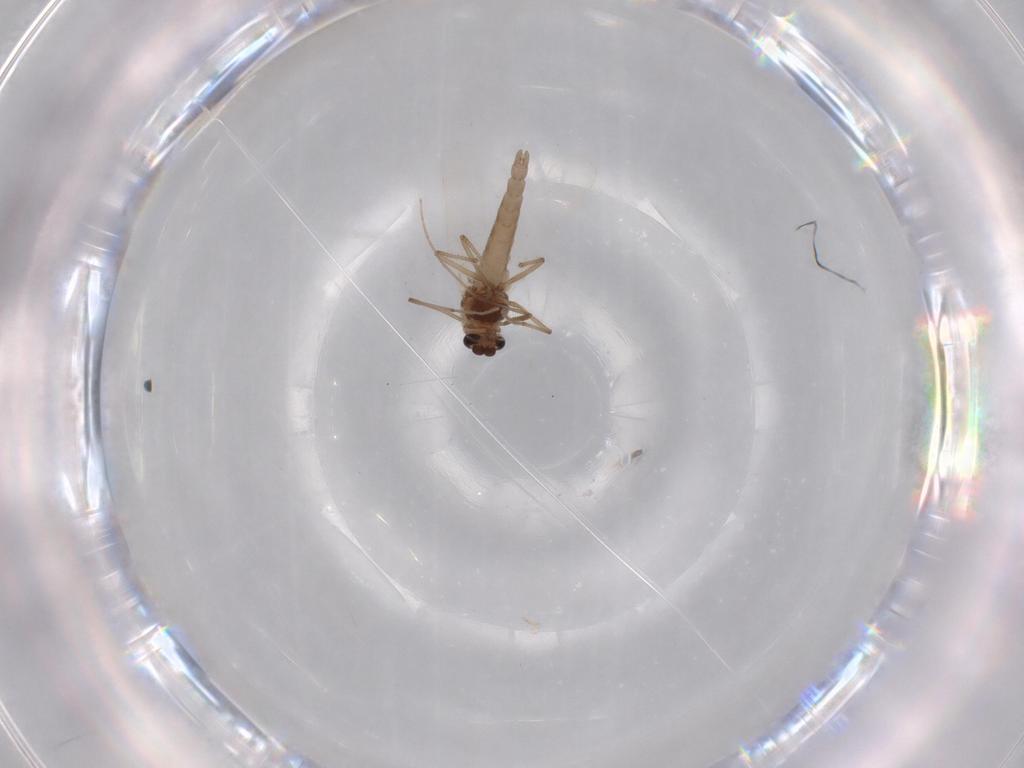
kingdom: Animalia
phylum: Arthropoda
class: Insecta
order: Diptera
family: Chironomidae
